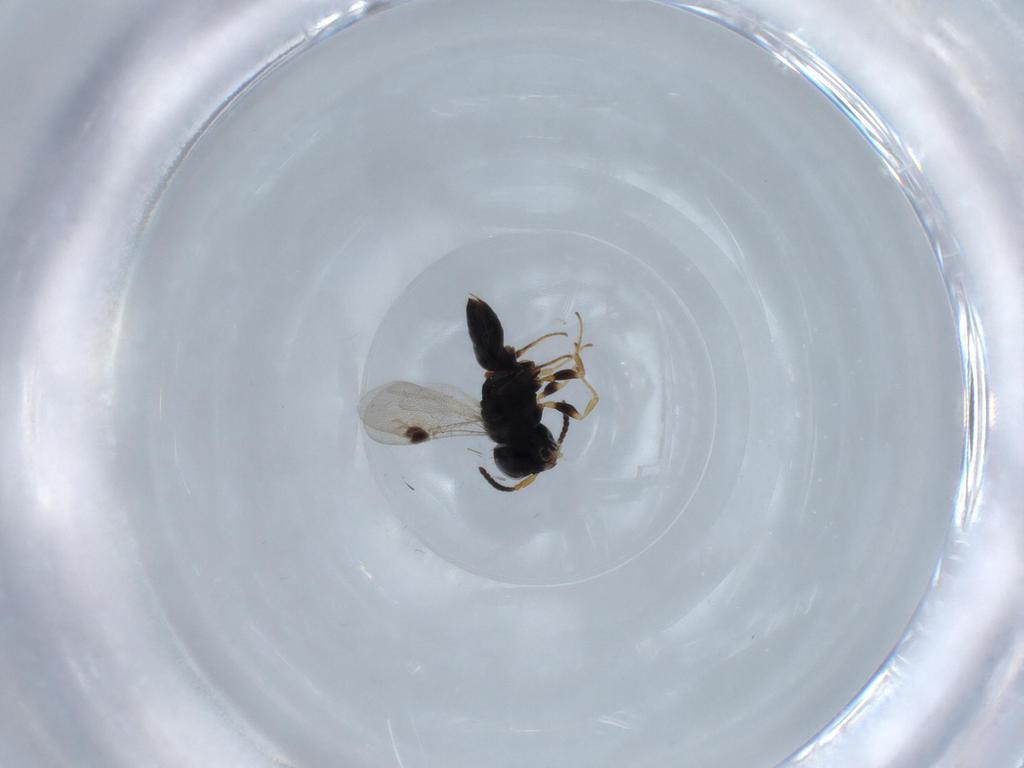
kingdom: Animalia
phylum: Arthropoda
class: Insecta
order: Hymenoptera
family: Dryinidae
